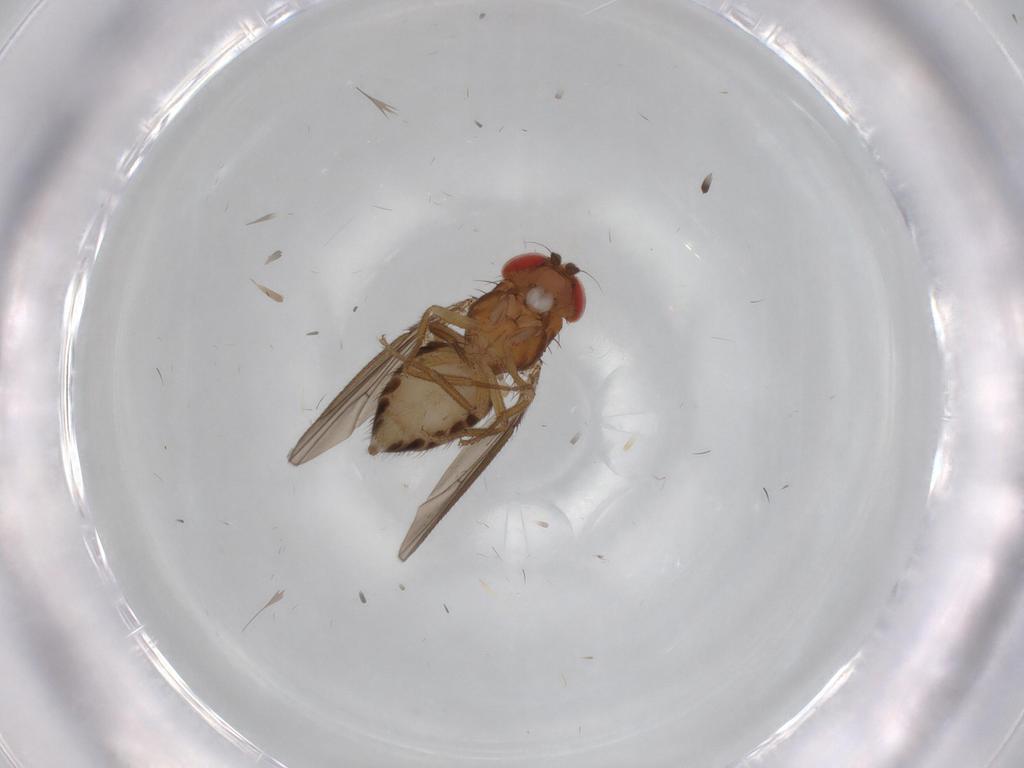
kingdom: Animalia
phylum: Arthropoda
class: Insecta
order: Diptera
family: Drosophilidae
